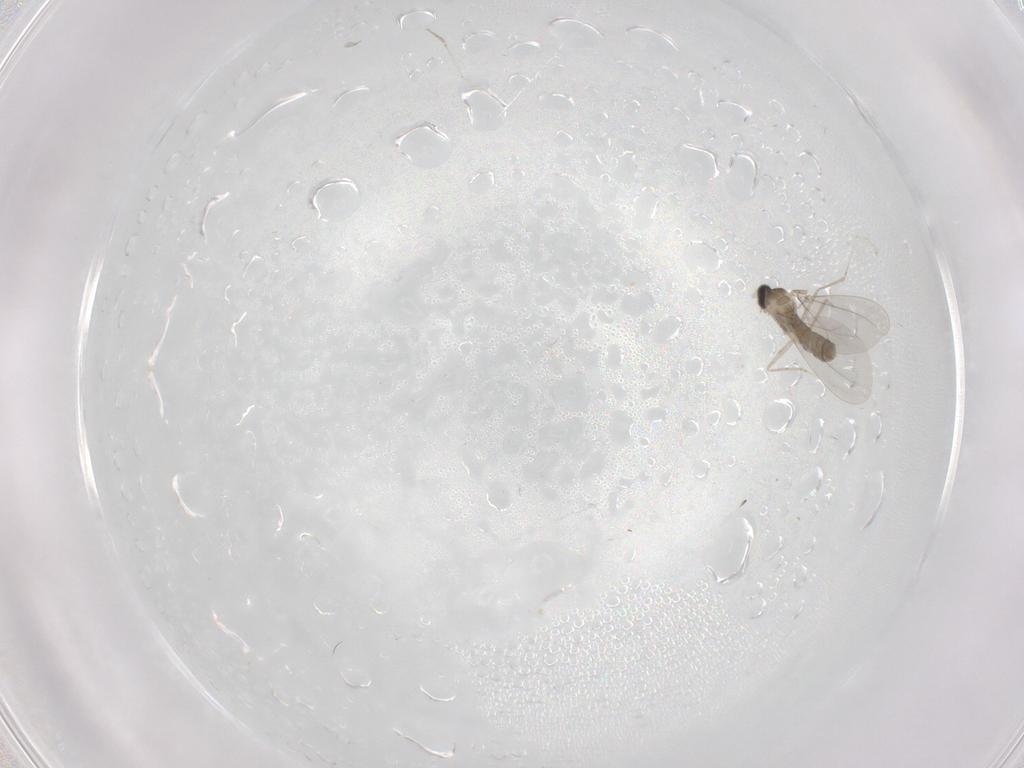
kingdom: Animalia
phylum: Arthropoda
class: Insecta
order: Diptera
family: Cecidomyiidae
